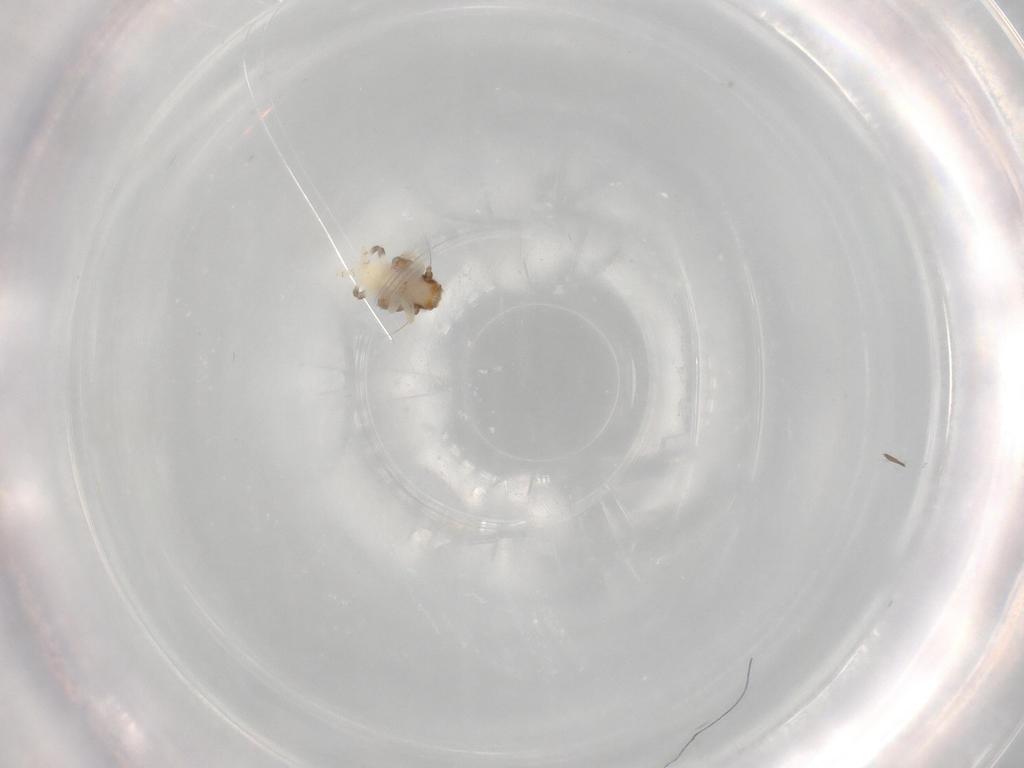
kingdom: Animalia
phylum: Arthropoda
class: Insecta
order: Hemiptera
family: Nogodinidae
